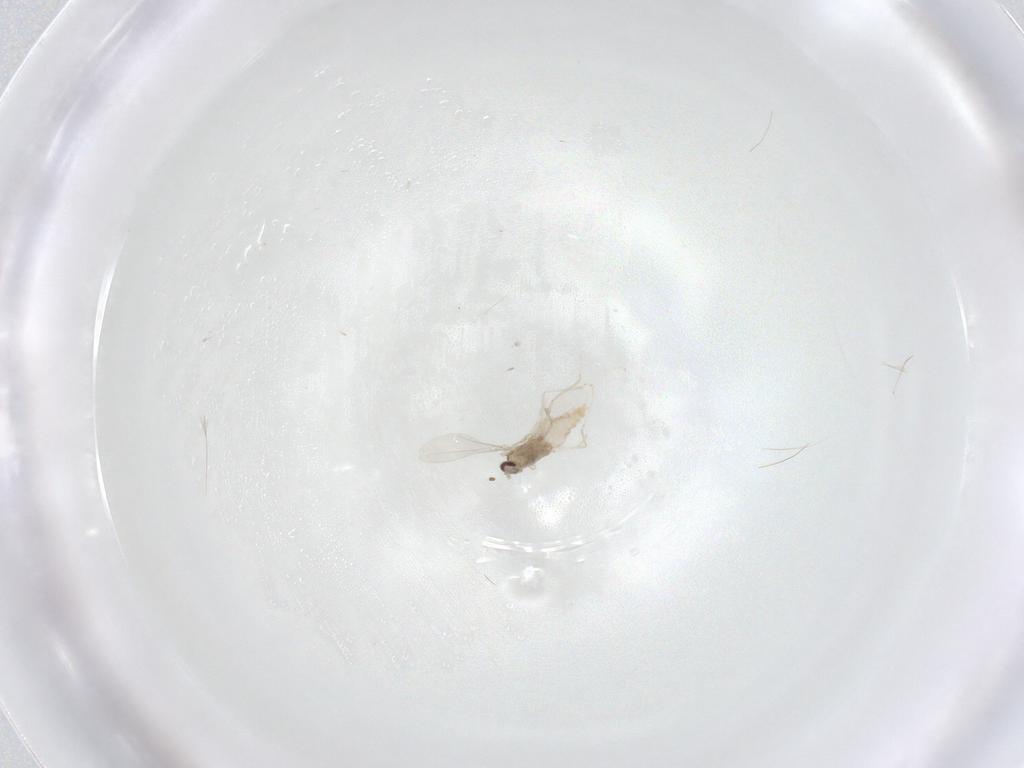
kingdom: Animalia
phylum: Arthropoda
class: Insecta
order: Diptera
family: Cecidomyiidae
